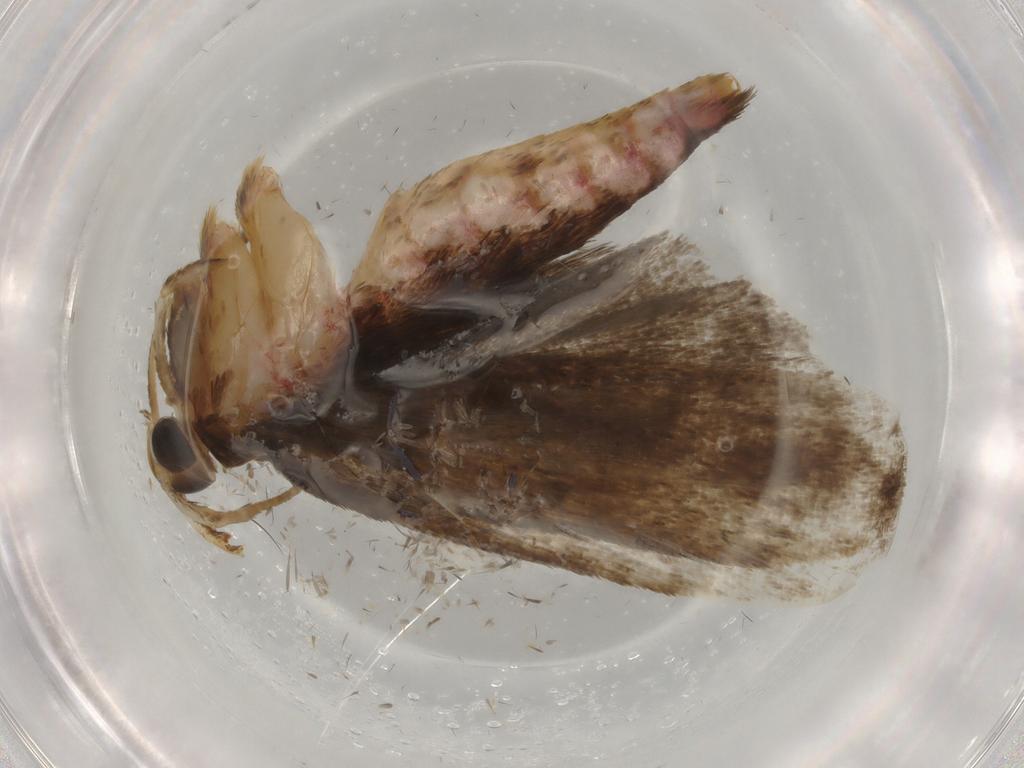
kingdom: Animalia
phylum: Arthropoda
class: Insecta
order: Lepidoptera
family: Autostichidae
